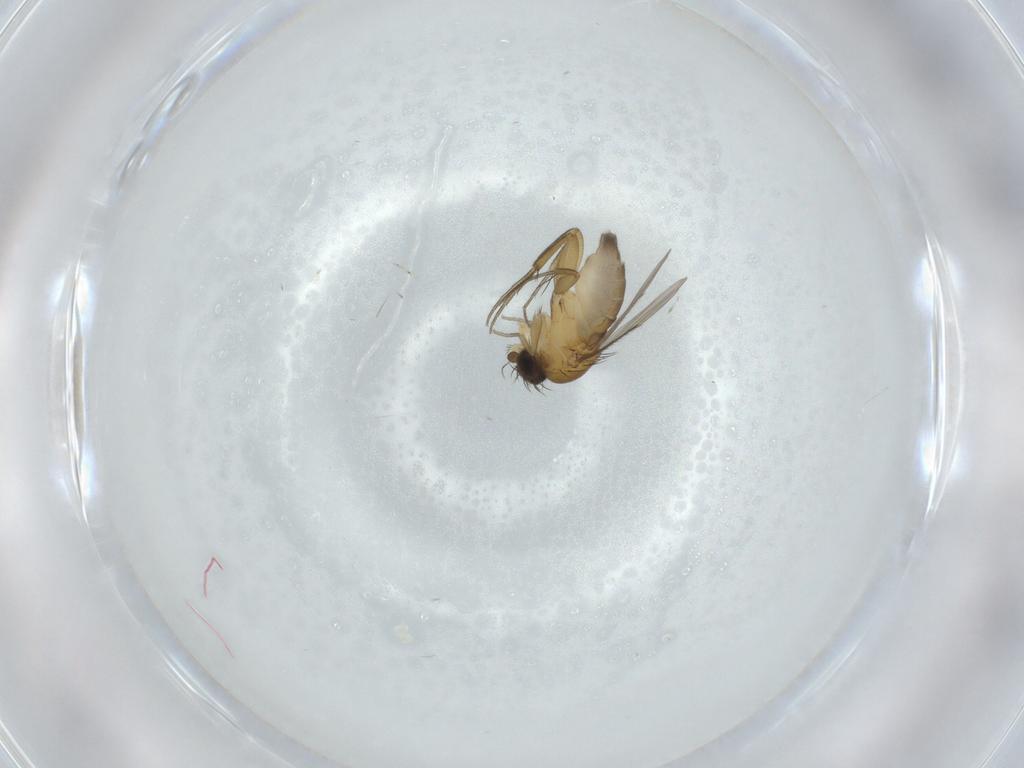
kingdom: Animalia
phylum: Arthropoda
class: Insecta
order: Diptera
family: Phoridae
